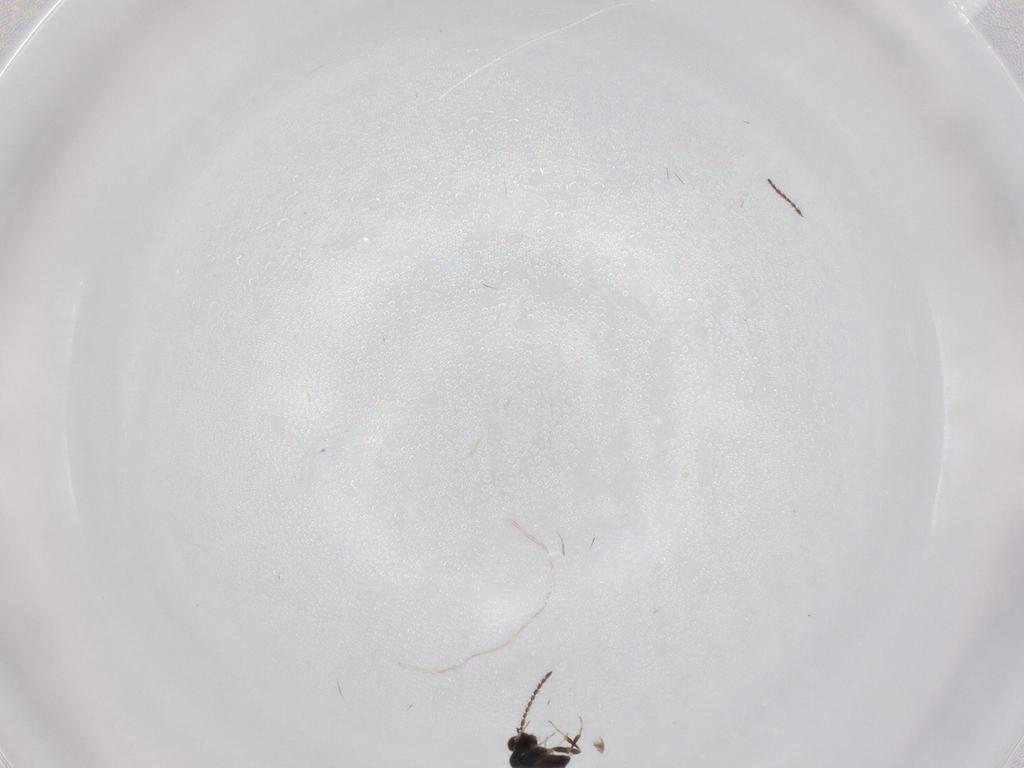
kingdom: Animalia
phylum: Arthropoda
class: Insecta
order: Hymenoptera
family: Mymaridae
